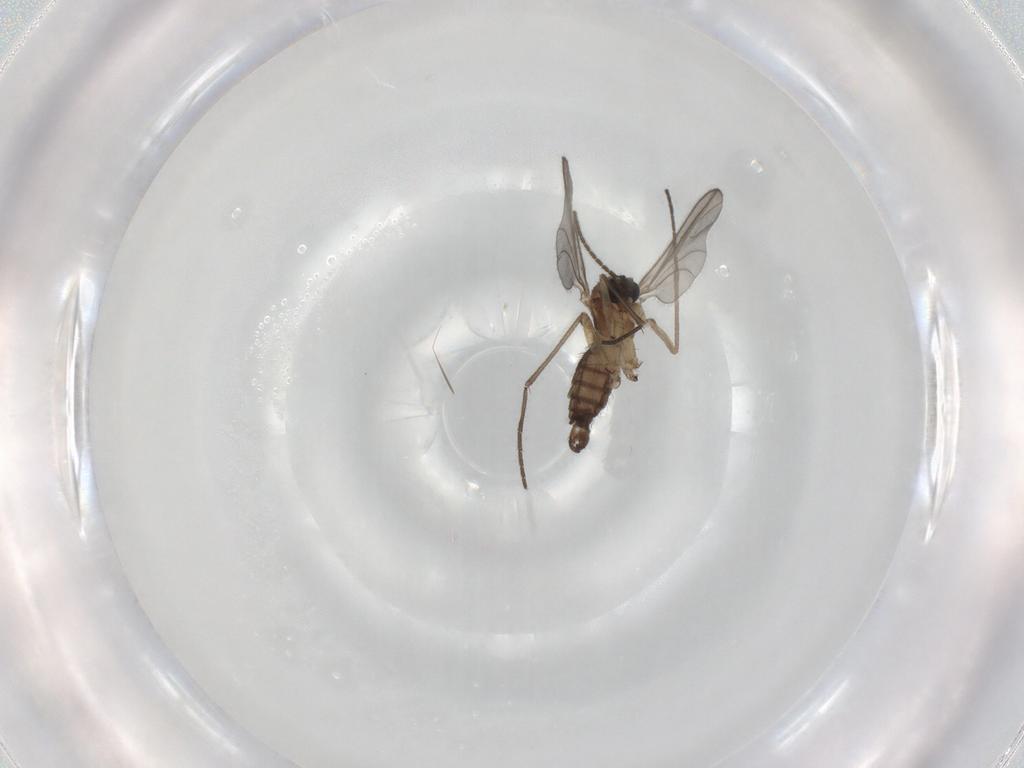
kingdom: Animalia
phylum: Arthropoda
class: Insecta
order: Diptera
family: Sciaridae
